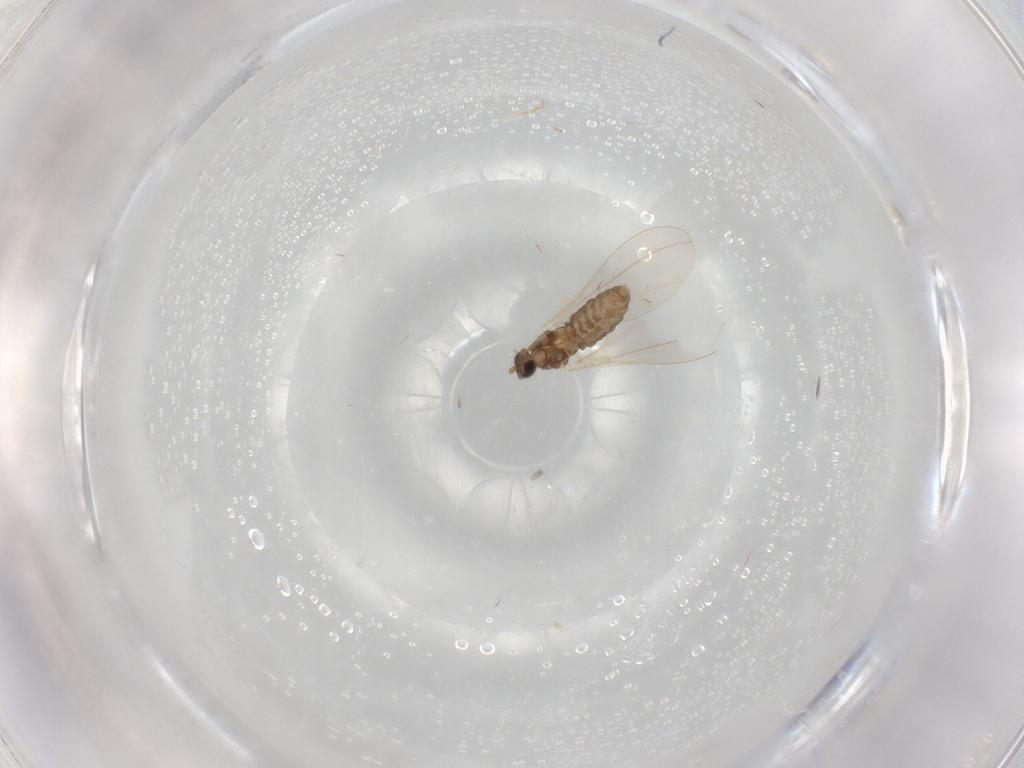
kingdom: Animalia
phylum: Arthropoda
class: Insecta
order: Diptera
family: Cecidomyiidae
